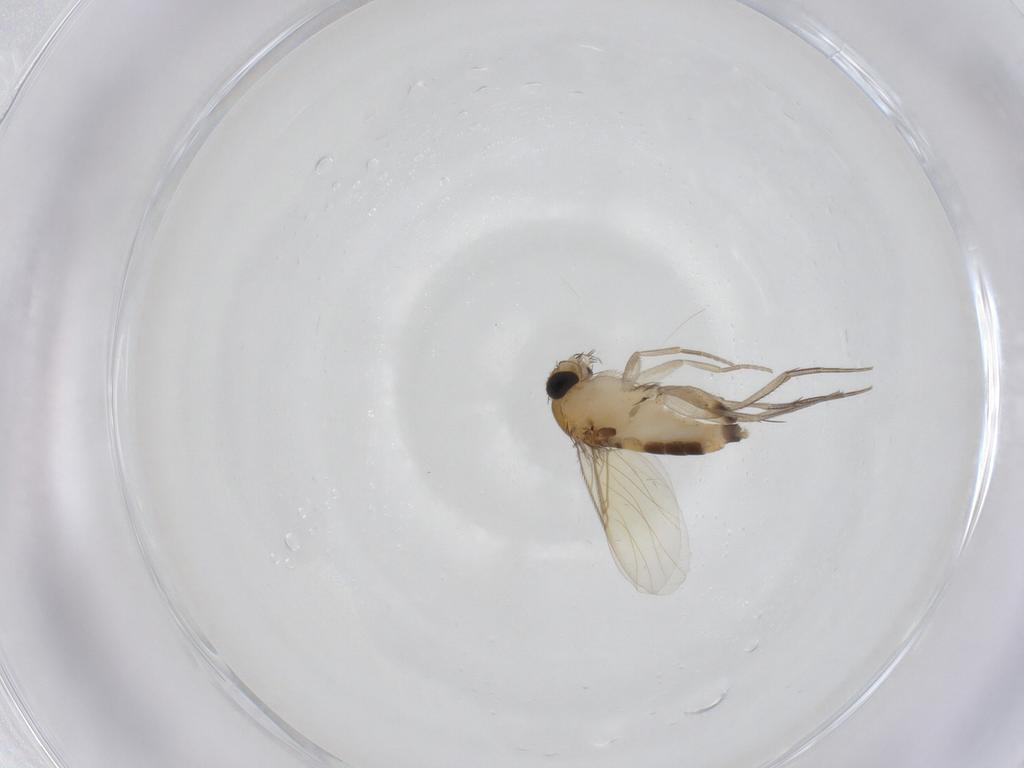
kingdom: Animalia
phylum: Arthropoda
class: Insecta
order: Diptera
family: Phoridae
